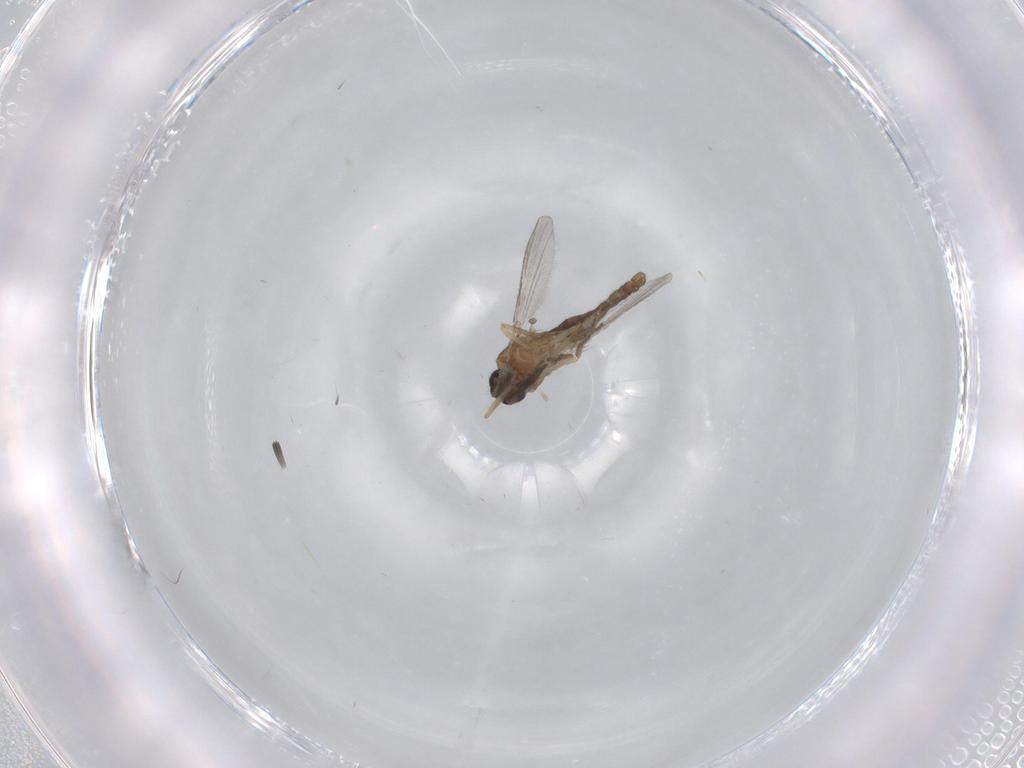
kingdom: Animalia
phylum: Arthropoda
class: Insecta
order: Diptera
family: Ceratopogonidae
